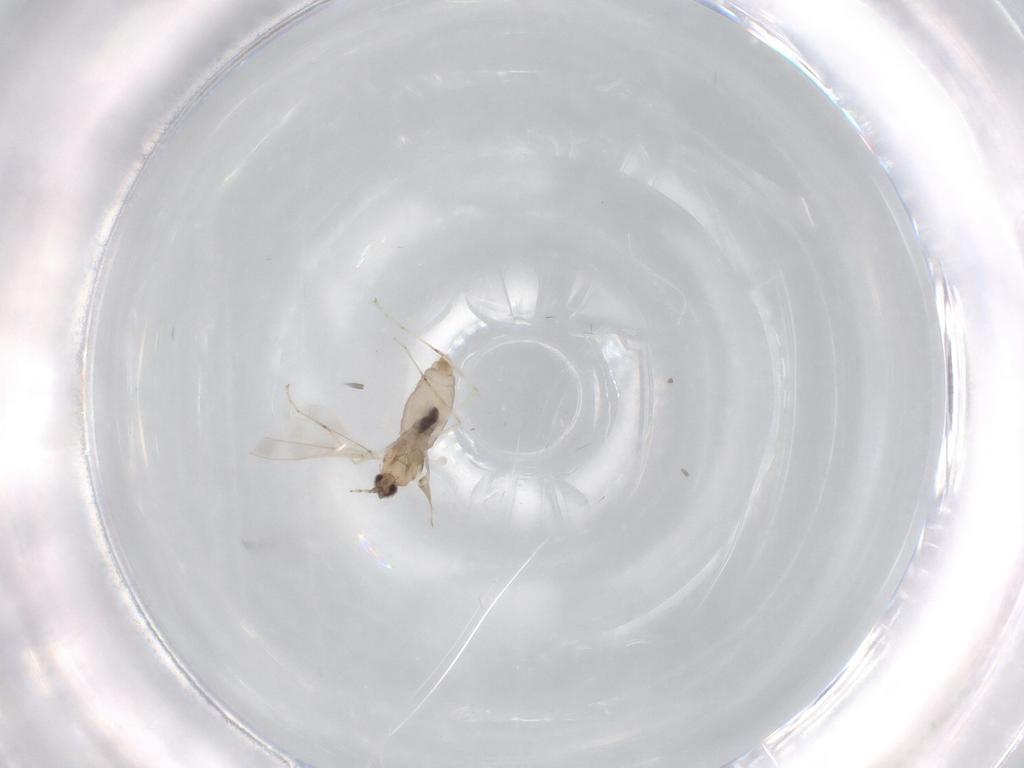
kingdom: Animalia
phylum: Arthropoda
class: Insecta
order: Diptera
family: Cecidomyiidae
